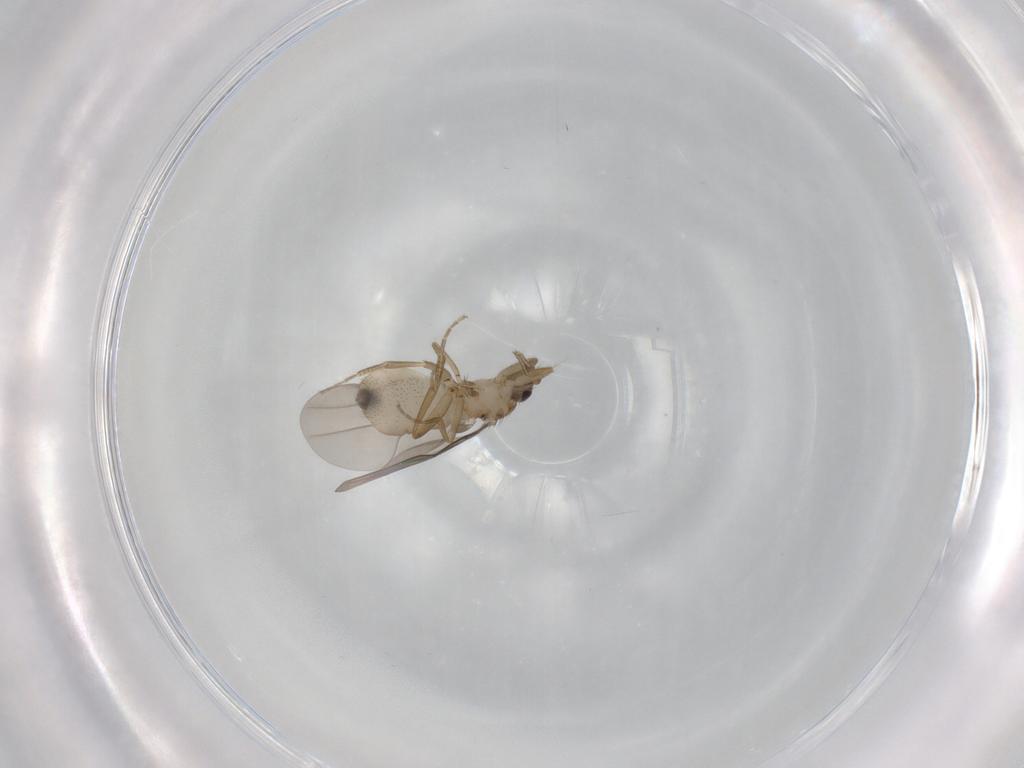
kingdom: Animalia
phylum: Arthropoda
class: Insecta
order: Diptera
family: Phoridae
